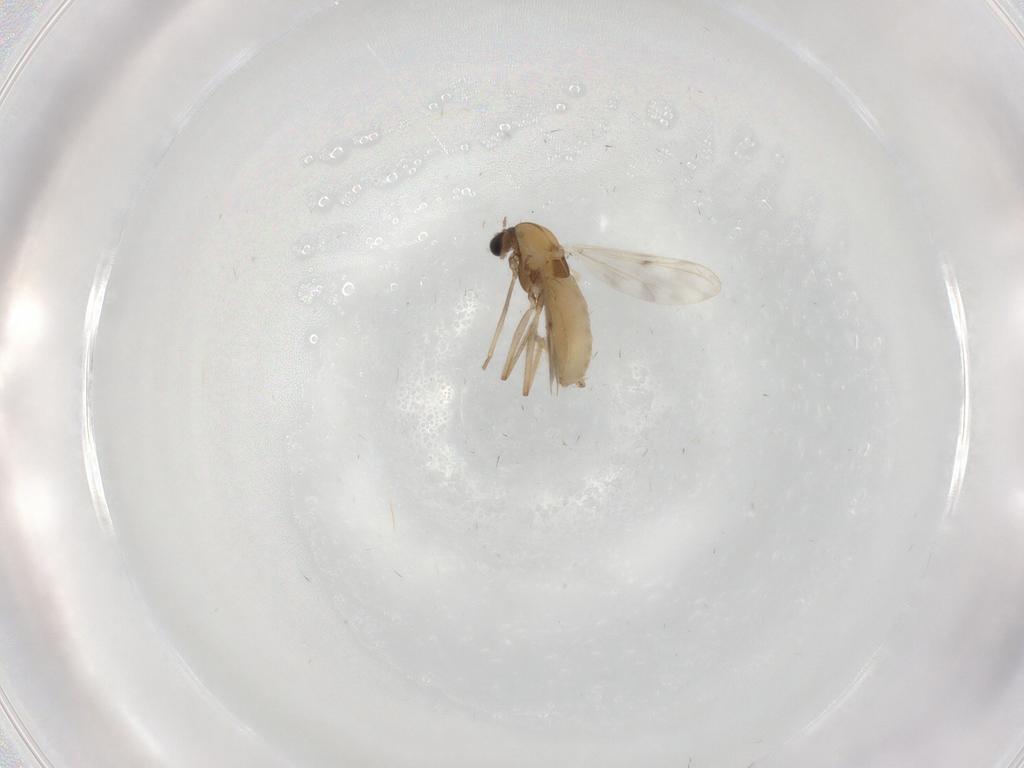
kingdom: Animalia
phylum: Arthropoda
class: Insecta
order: Diptera
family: Chironomidae
